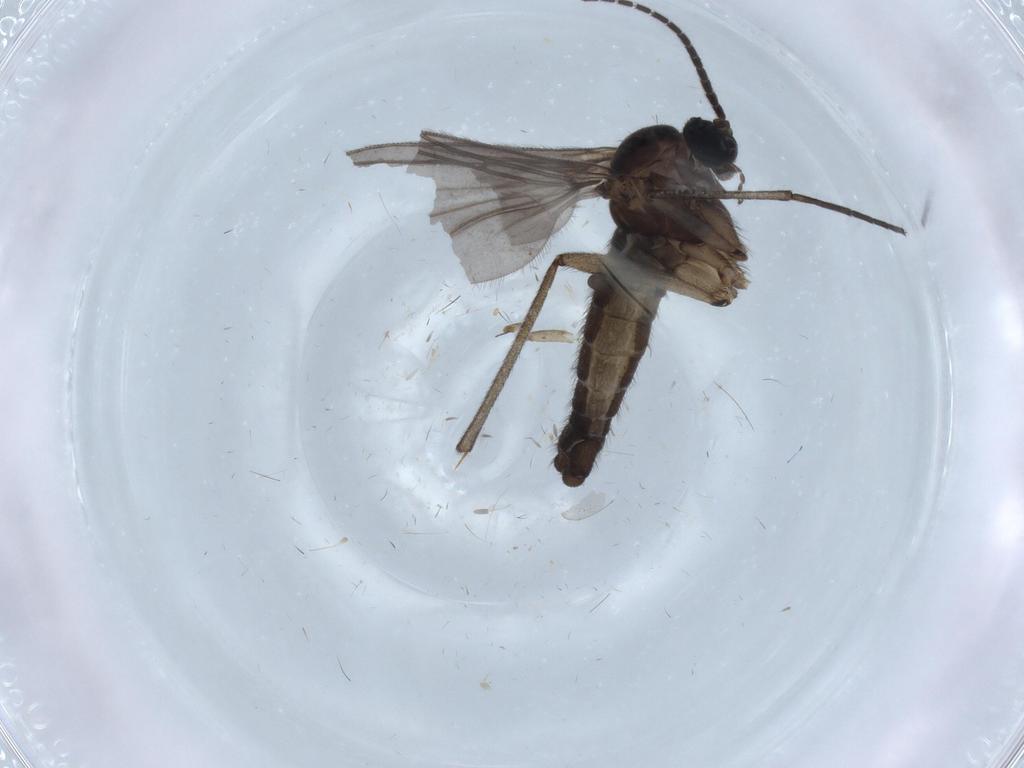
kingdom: Animalia
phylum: Arthropoda
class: Insecta
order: Diptera
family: Sciaridae
